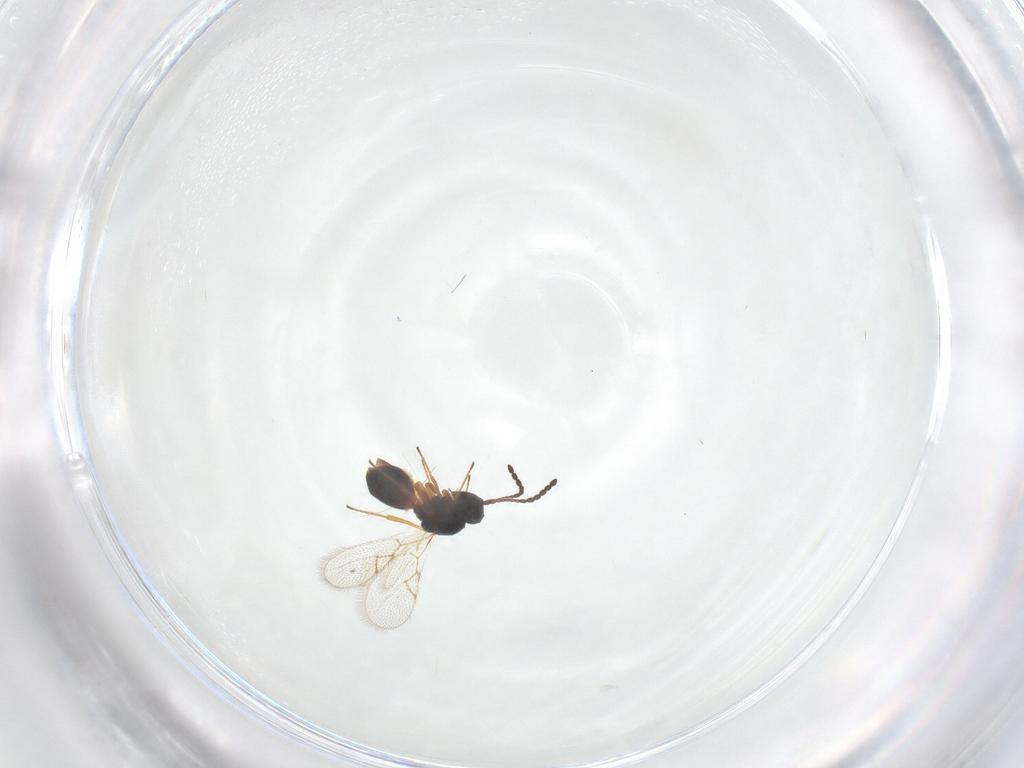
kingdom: Animalia
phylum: Arthropoda
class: Insecta
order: Hymenoptera
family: Figitidae
